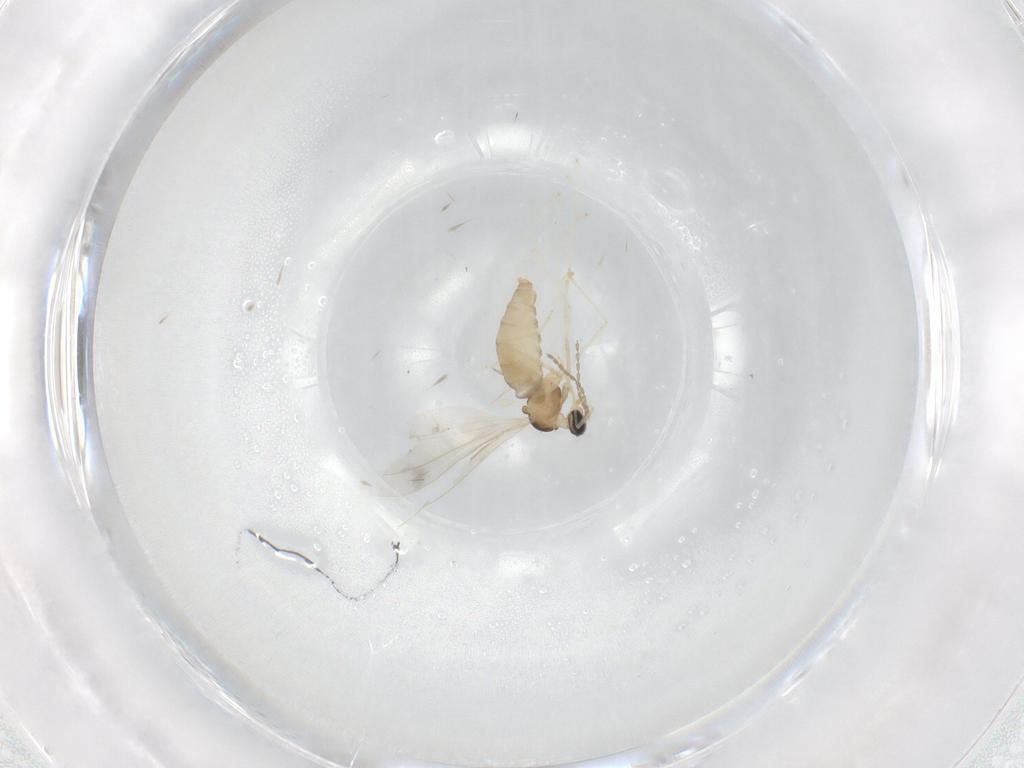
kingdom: Animalia
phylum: Arthropoda
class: Insecta
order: Diptera
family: Cecidomyiidae
